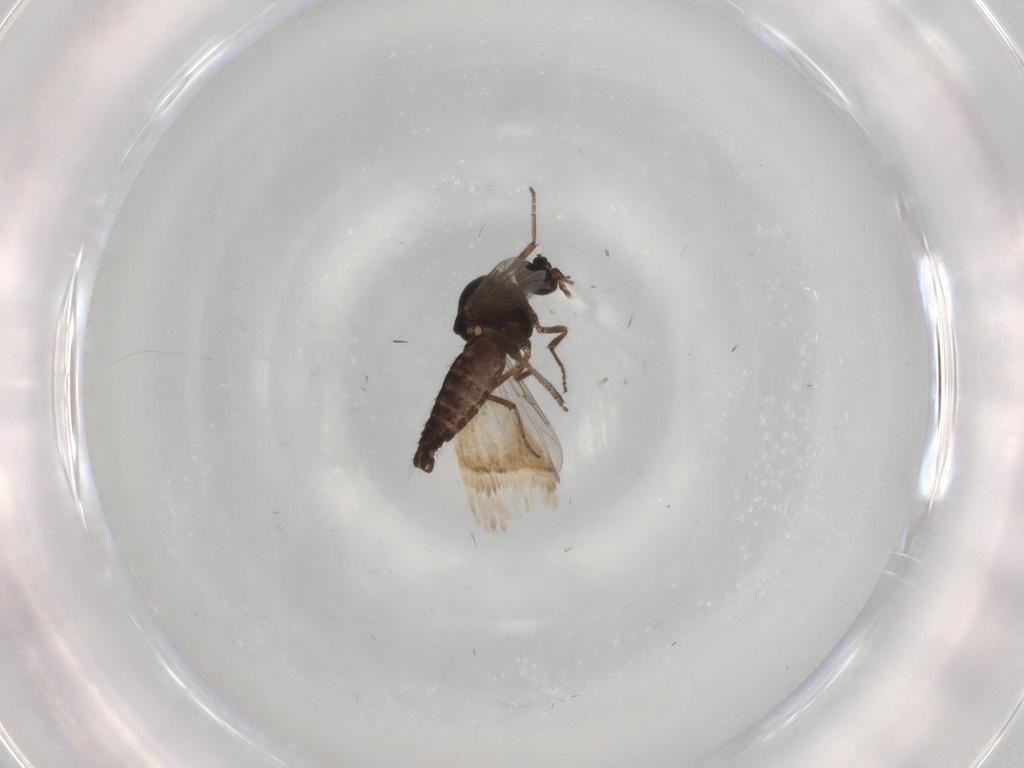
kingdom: Animalia
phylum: Arthropoda
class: Insecta
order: Diptera
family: Ceratopogonidae
